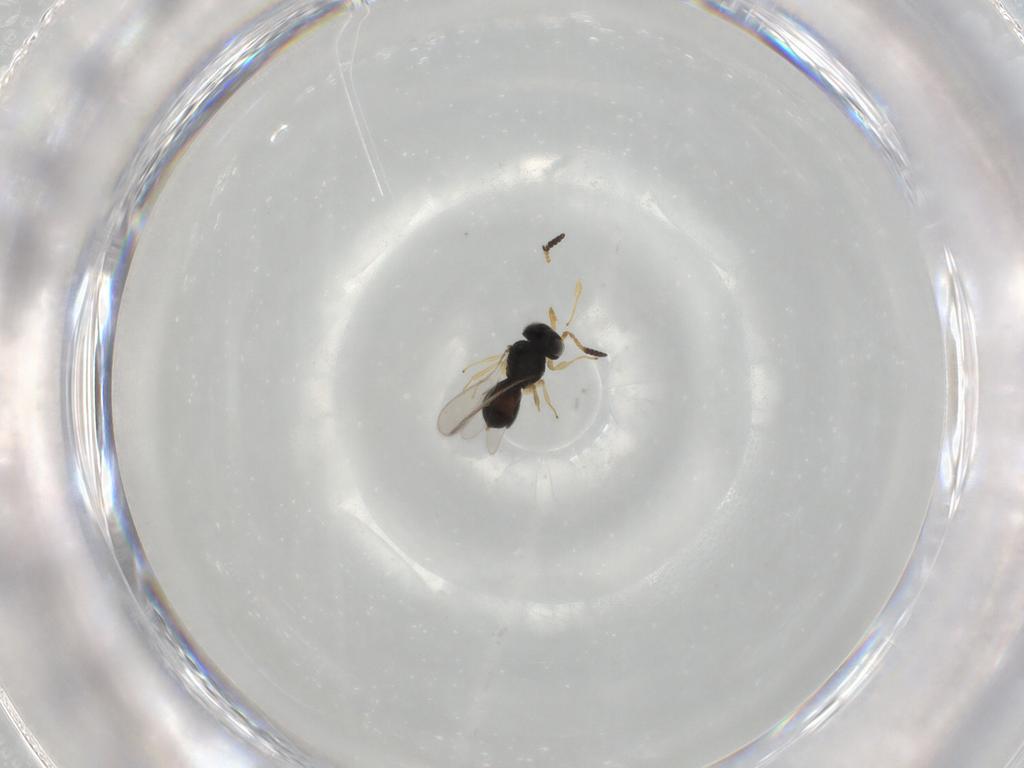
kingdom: Animalia
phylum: Arthropoda
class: Insecta
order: Hymenoptera
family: Scelionidae
